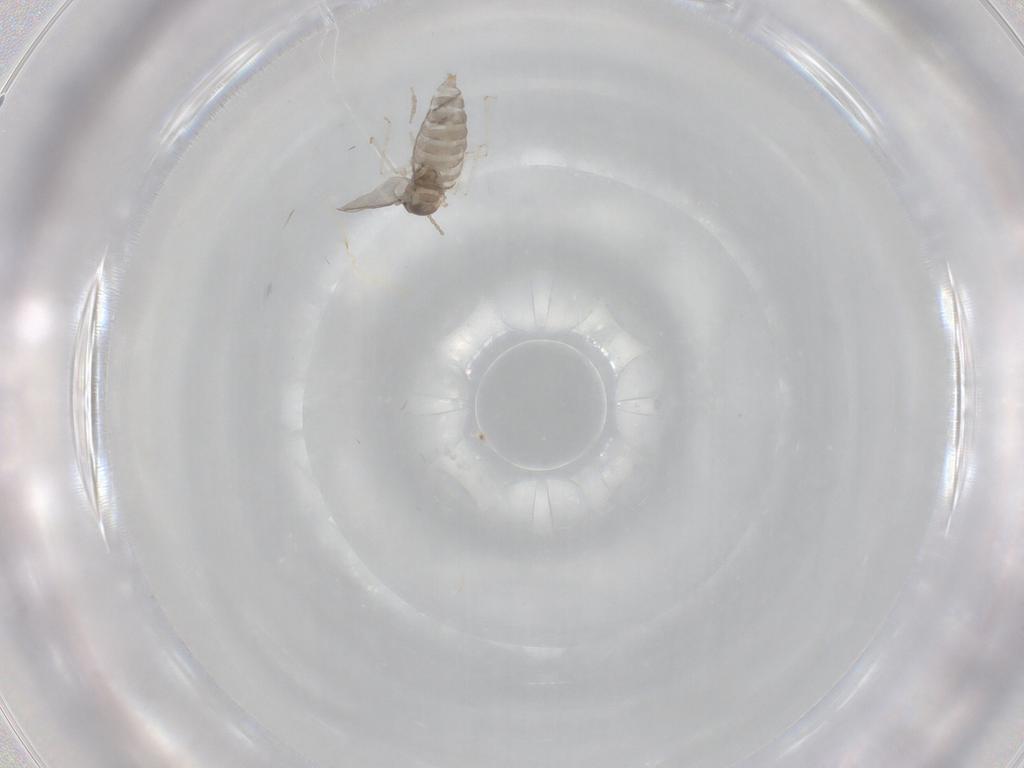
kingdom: Animalia
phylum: Arthropoda
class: Insecta
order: Diptera
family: Cecidomyiidae
